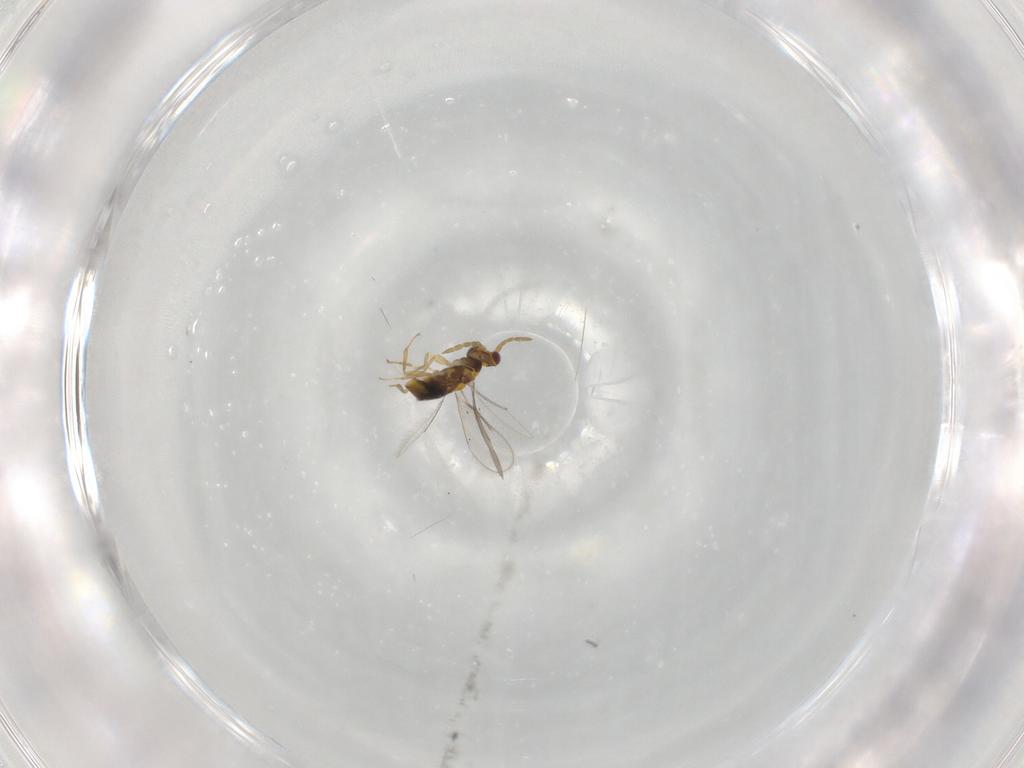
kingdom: Animalia
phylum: Arthropoda
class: Insecta
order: Hymenoptera
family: Aphelinidae
